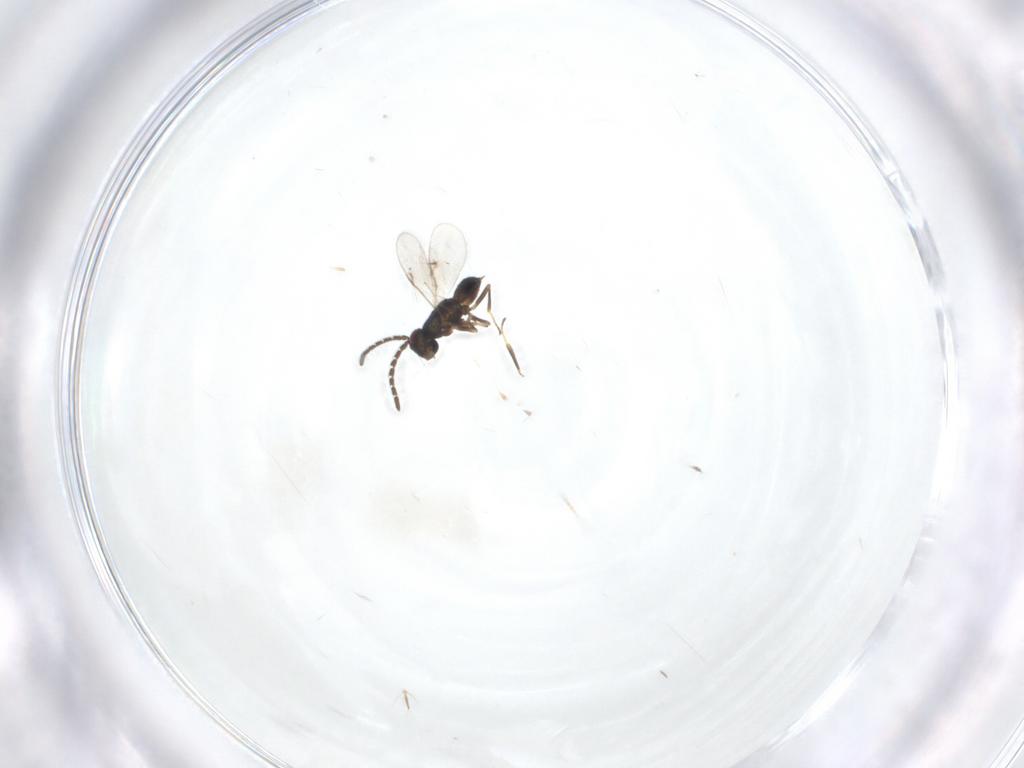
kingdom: Animalia
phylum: Arthropoda
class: Insecta
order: Hymenoptera
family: Encyrtidae
